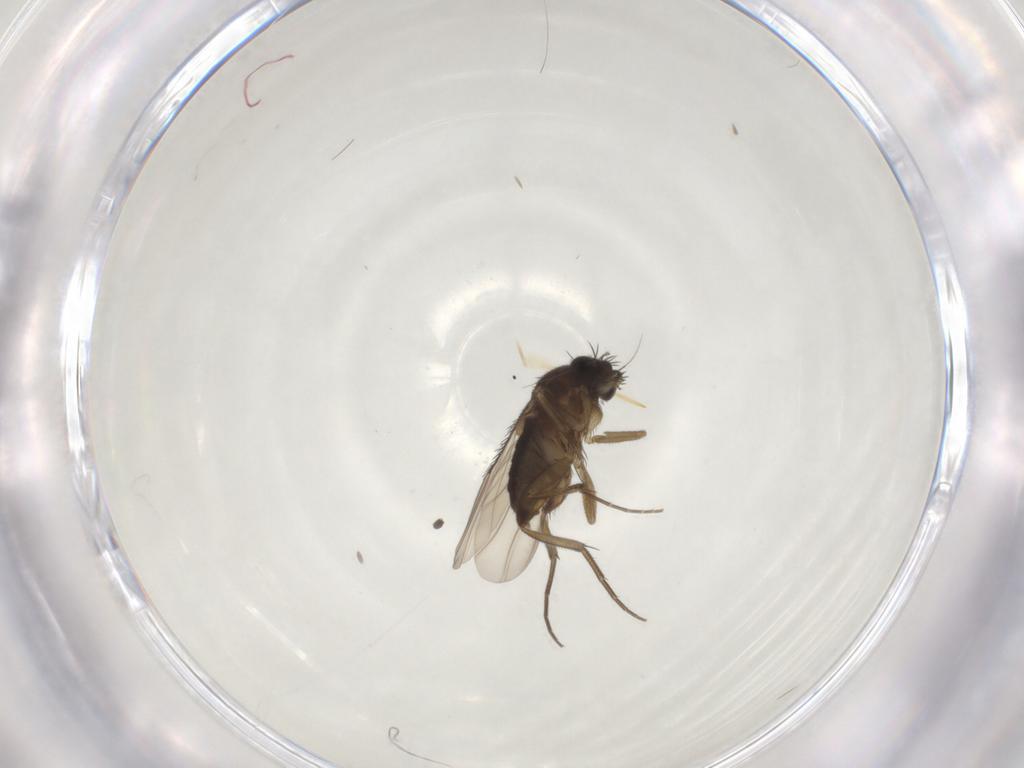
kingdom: Animalia
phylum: Arthropoda
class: Insecta
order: Diptera
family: Phoridae
